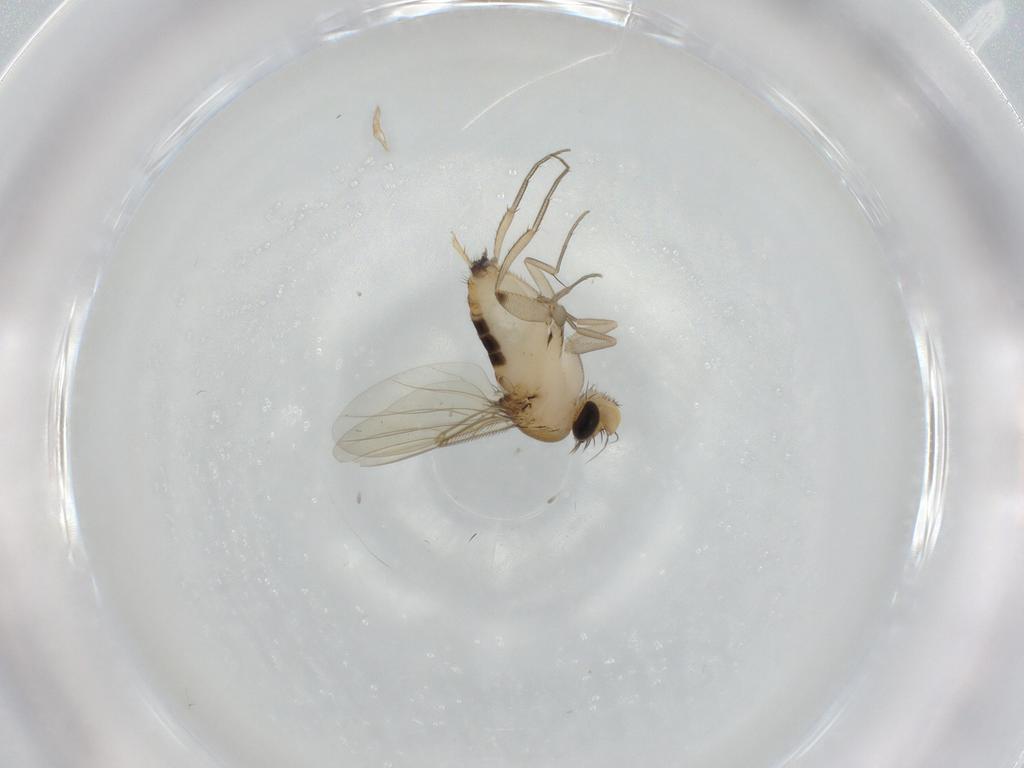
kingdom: Animalia
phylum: Arthropoda
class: Insecta
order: Diptera
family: Phoridae
